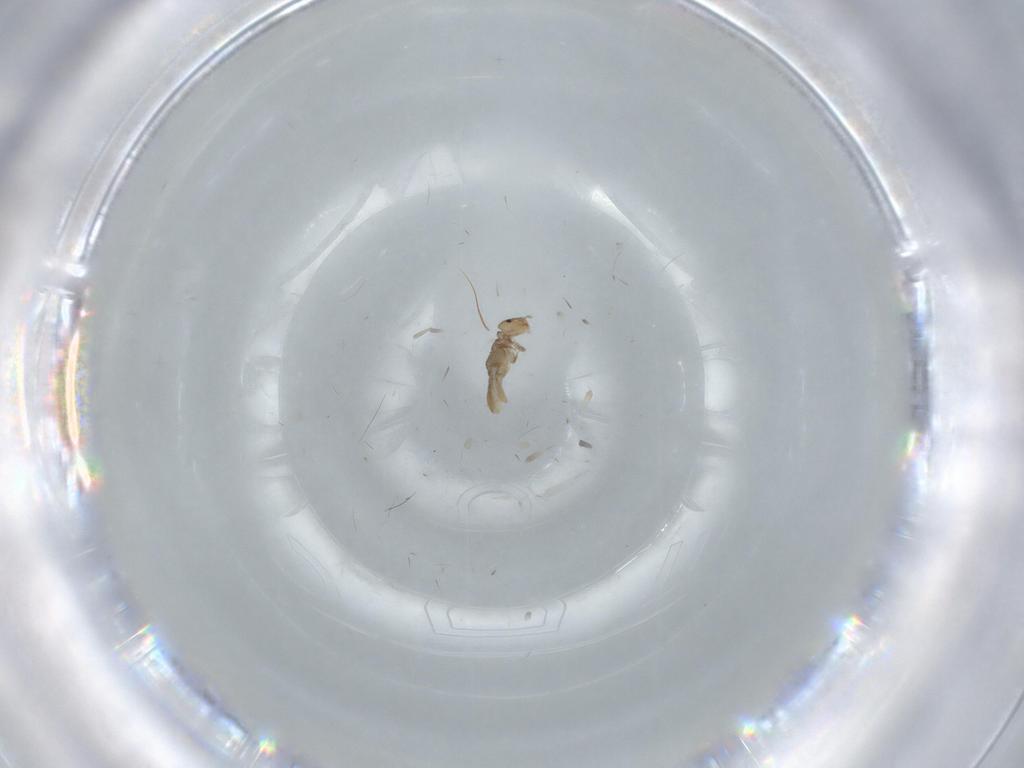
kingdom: Animalia
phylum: Arthropoda
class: Insecta
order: Psocodea
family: Liposcelididae
